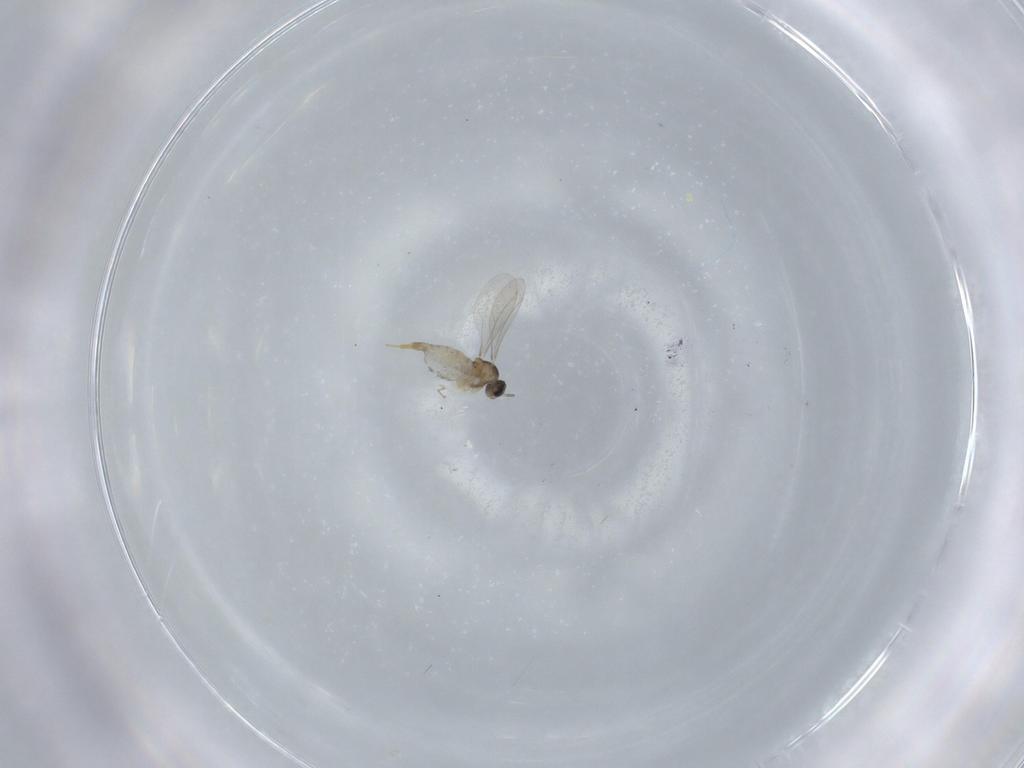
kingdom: Animalia
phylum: Arthropoda
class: Insecta
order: Diptera
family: Cecidomyiidae
